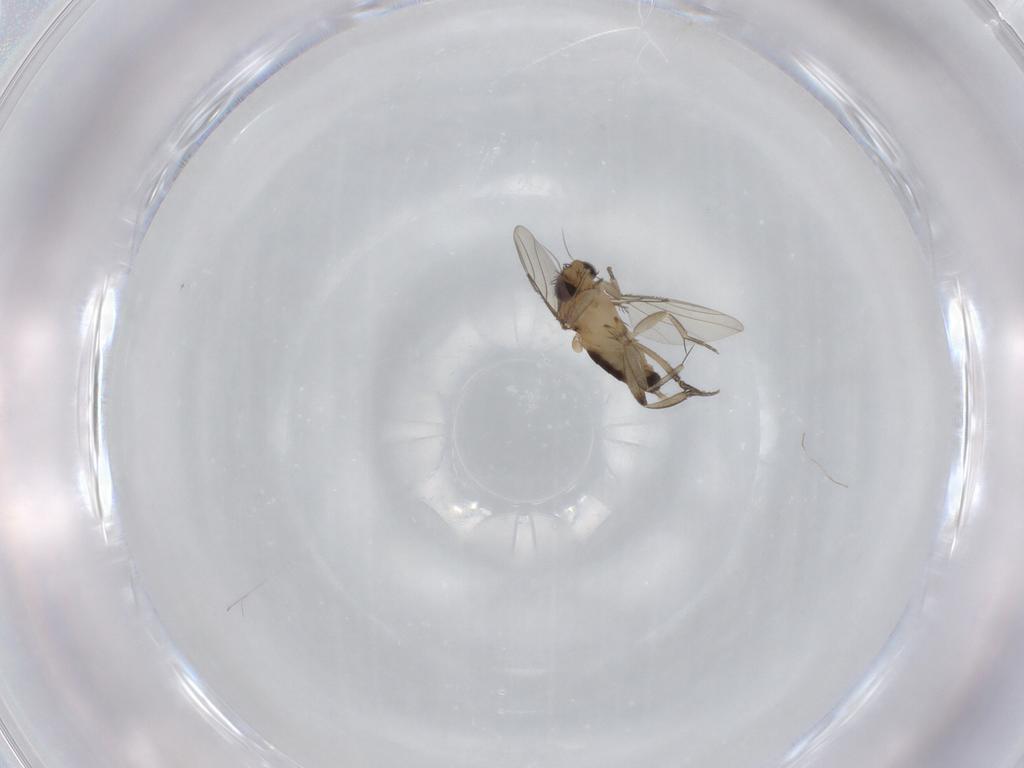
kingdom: Animalia
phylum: Arthropoda
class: Insecta
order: Diptera
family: Phoridae
